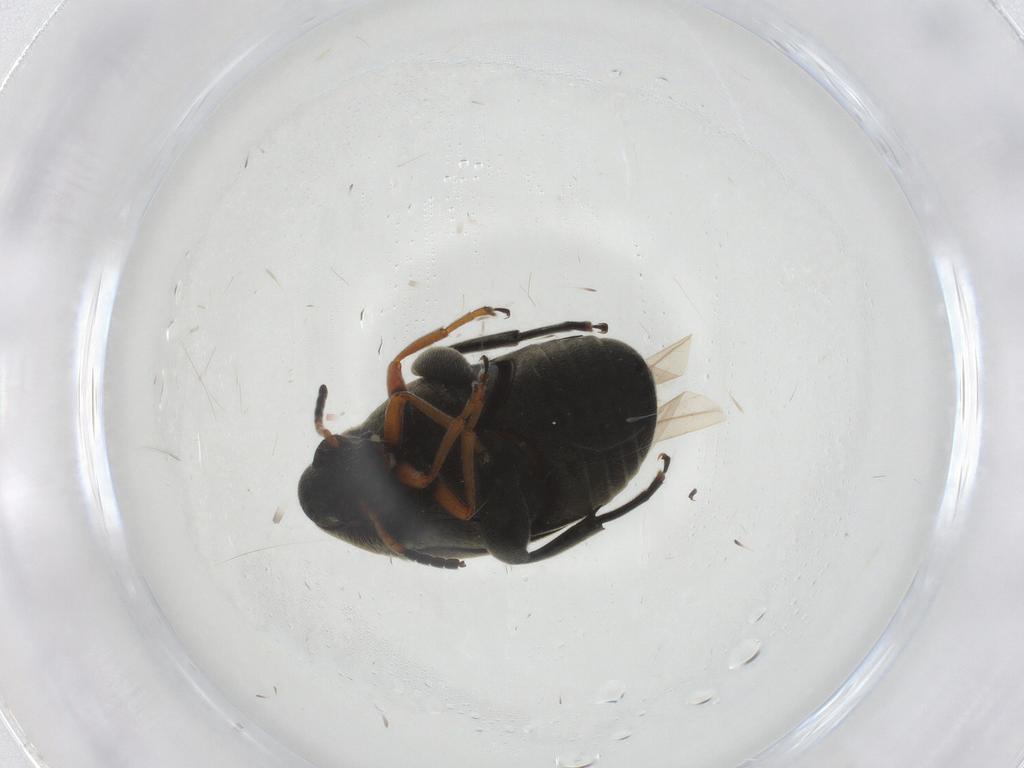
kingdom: Animalia
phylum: Arthropoda
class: Insecta
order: Coleoptera
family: Chrysomelidae
